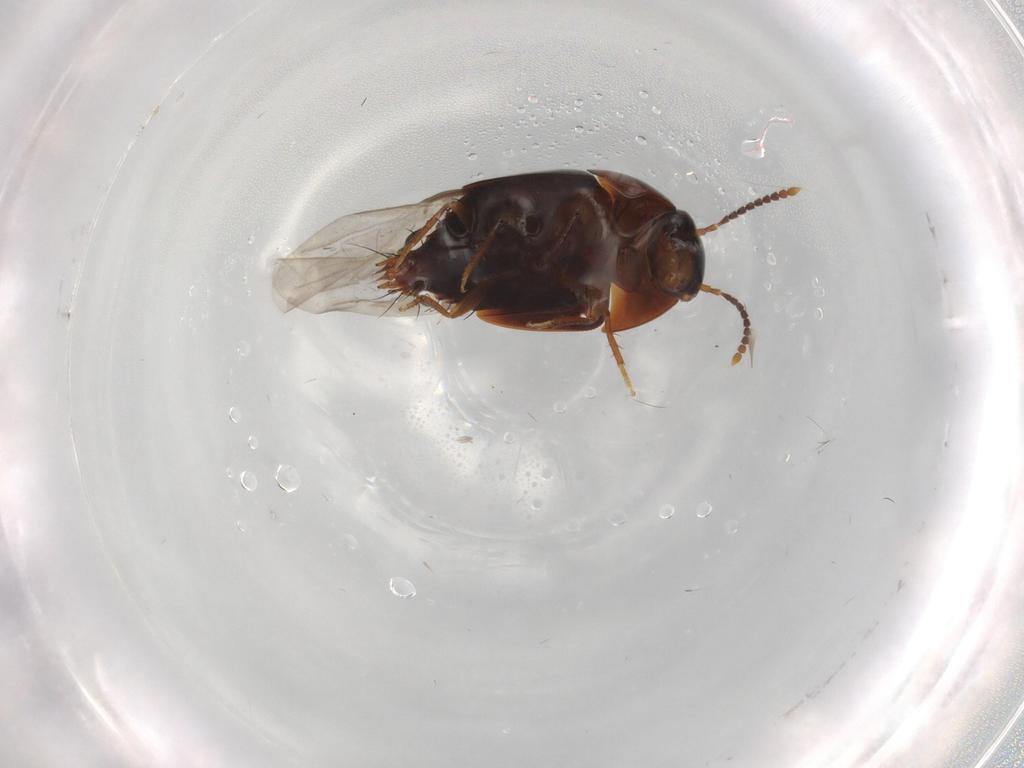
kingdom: Animalia
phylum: Arthropoda
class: Insecta
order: Coleoptera
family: Staphylinidae
